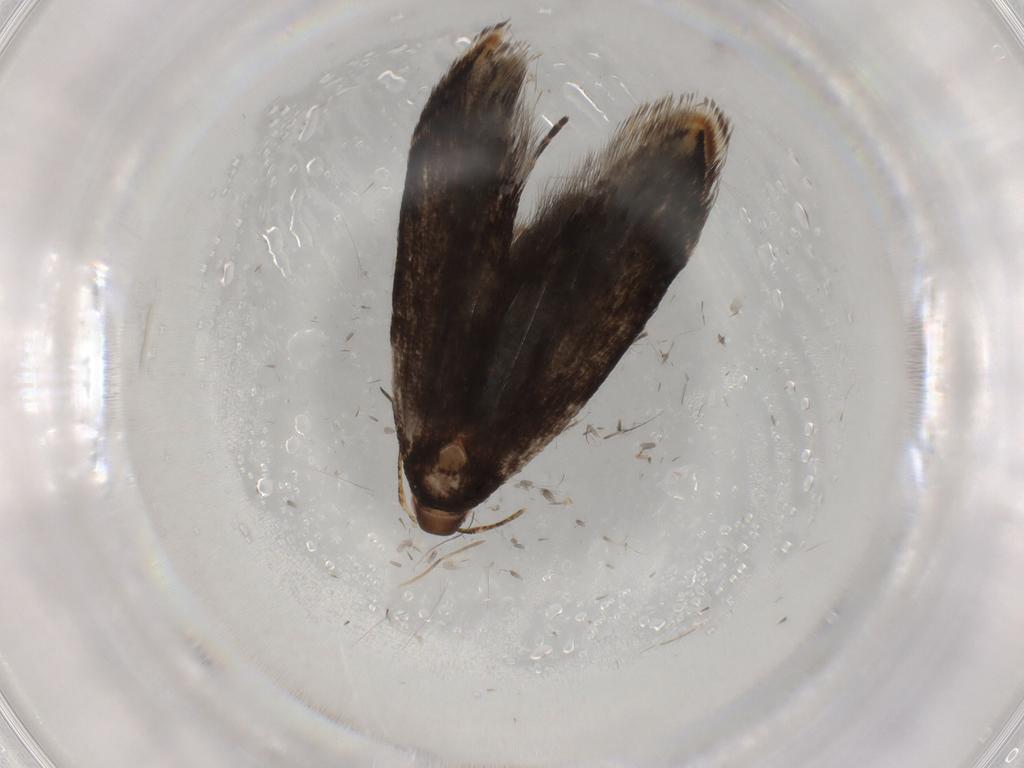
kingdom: Animalia
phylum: Arthropoda
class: Insecta
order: Lepidoptera
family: Gelechiidae
